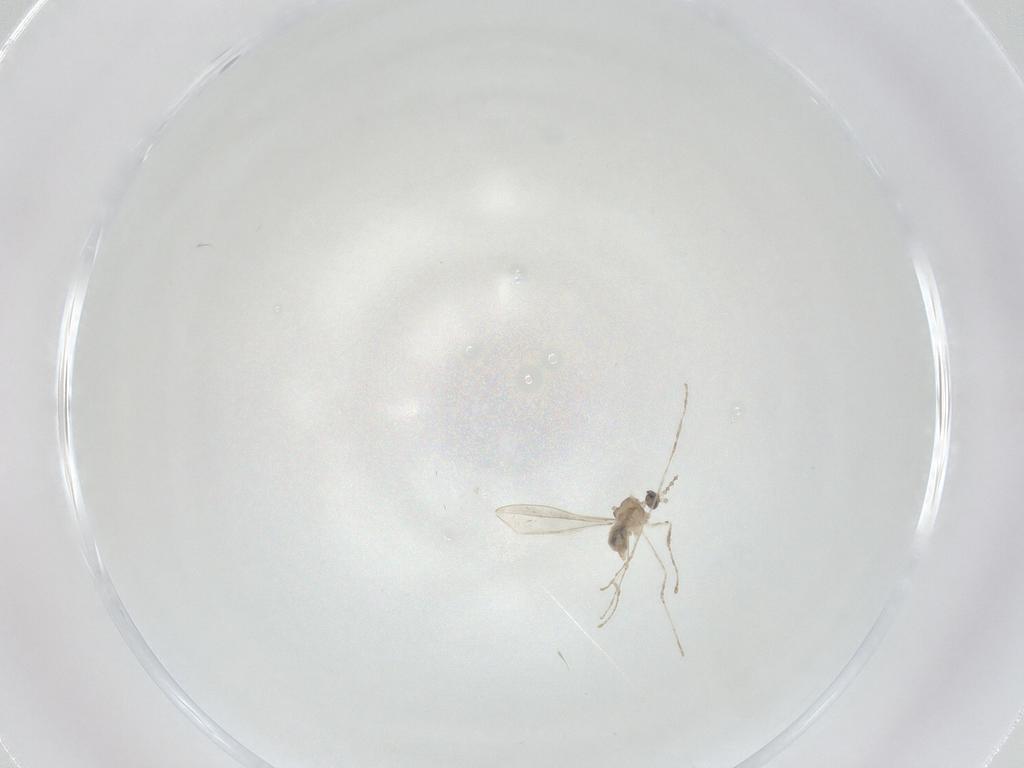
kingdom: Animalia
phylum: Arthropoda
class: Insecta
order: Diptera
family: Cecidomyiidae
